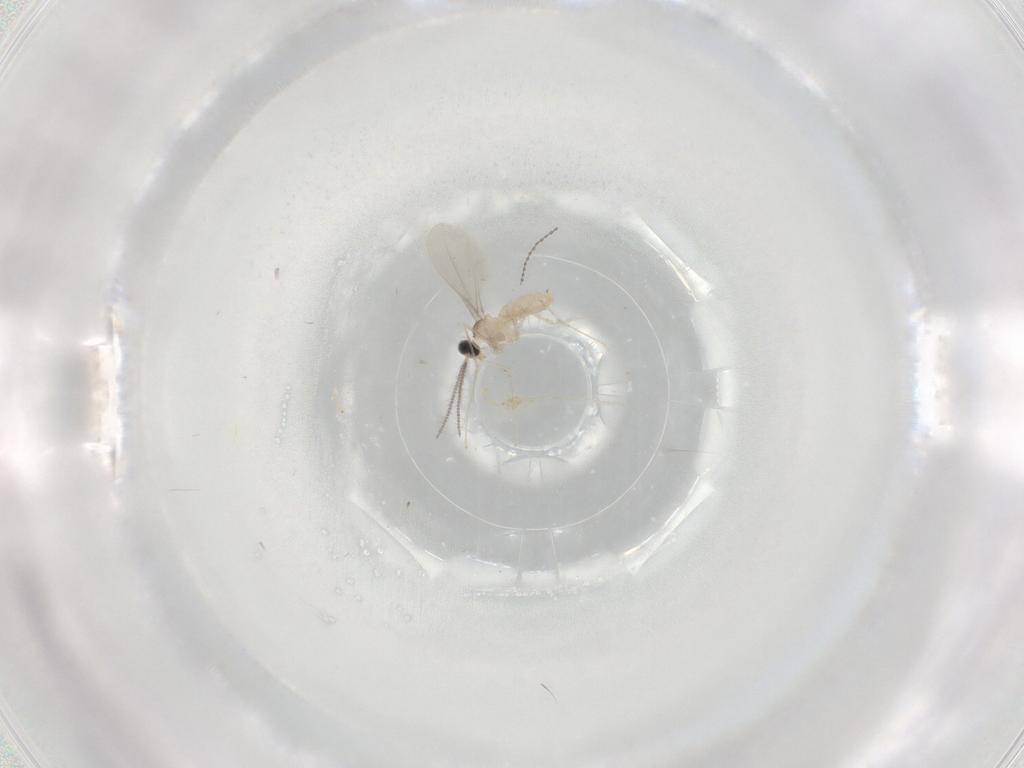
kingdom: Animalia
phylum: Arthropoda
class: Insecta
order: Diptera
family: Cecidomyiidae
